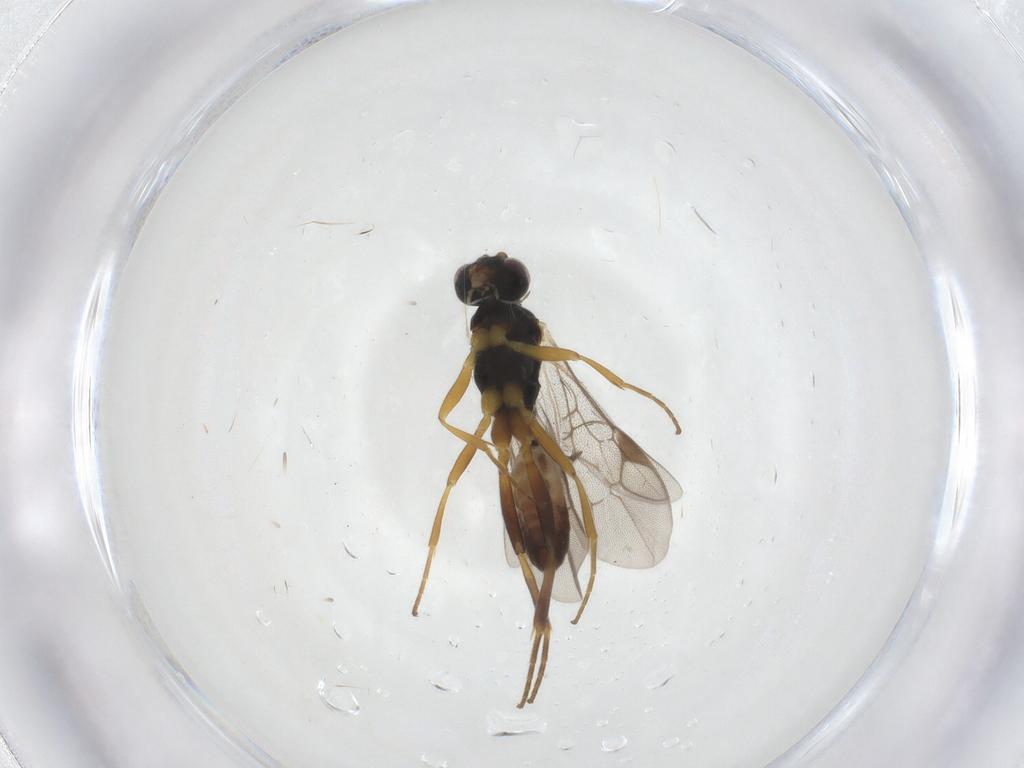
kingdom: Animalia
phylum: Arthropoda
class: Insecta
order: Hymenoptera
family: Ichneumonidae
